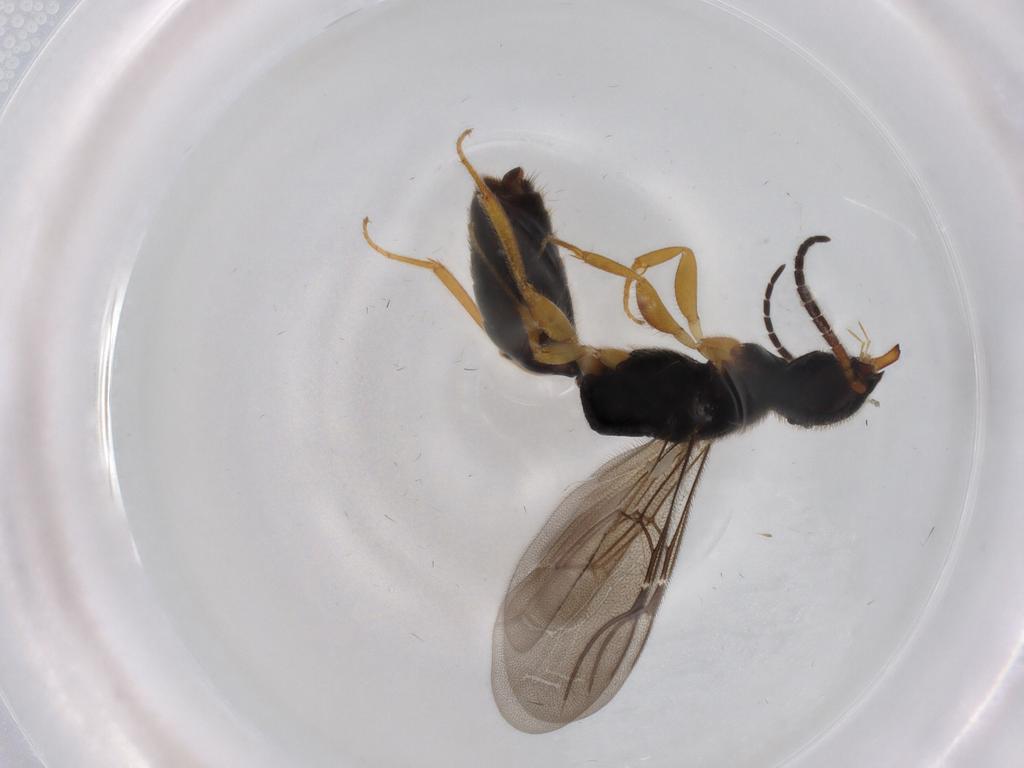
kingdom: Animalia
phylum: Arthropoda
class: Insecta
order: Hymenoptera
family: Bethylidae
